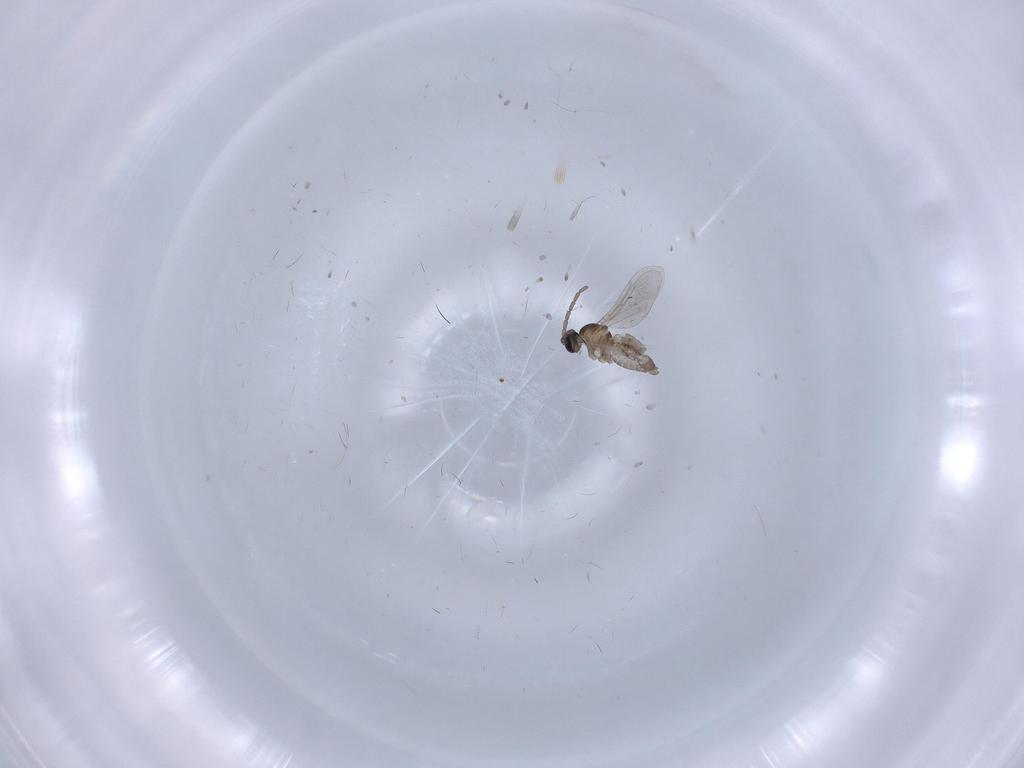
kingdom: Animalia
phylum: Arthropoda
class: Insecta
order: Diptera
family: Cecidomyiidae
